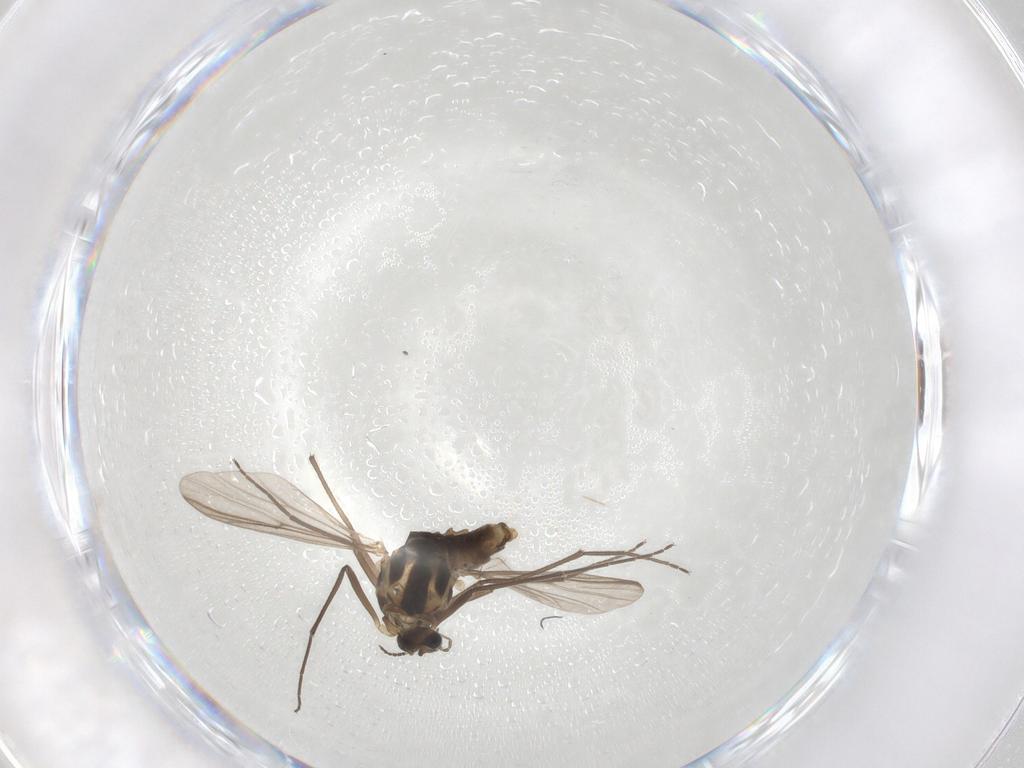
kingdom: Animalia
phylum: Arthropoda
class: Insecta
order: Diptera
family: Chironomidae
